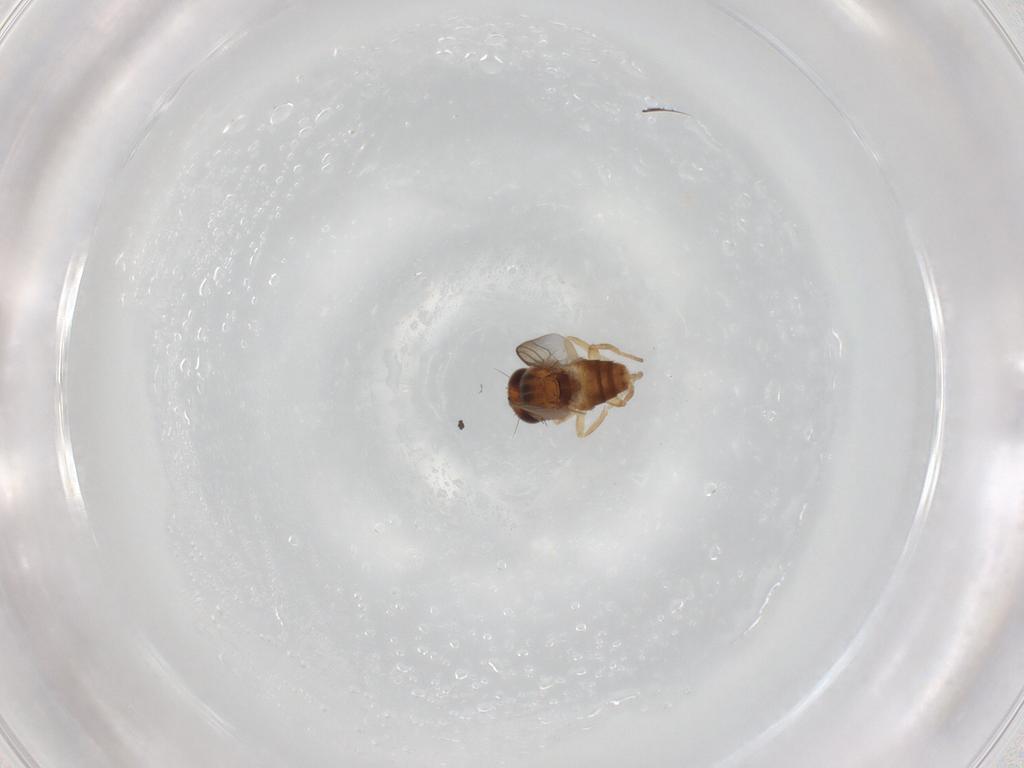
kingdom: Animalia
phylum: Arthropoda
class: Insecta
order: Diptera
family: Chloropidae
